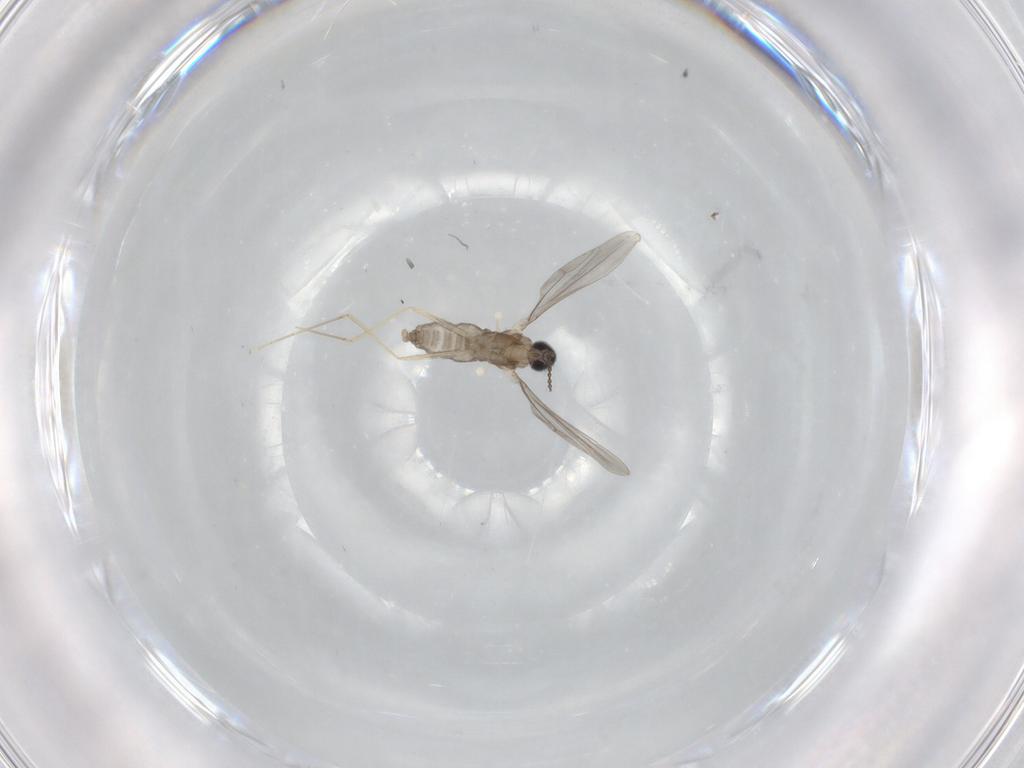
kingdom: Animalia
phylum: Arthropoda
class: Insecta
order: Diptera
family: Cecidomyiidae
